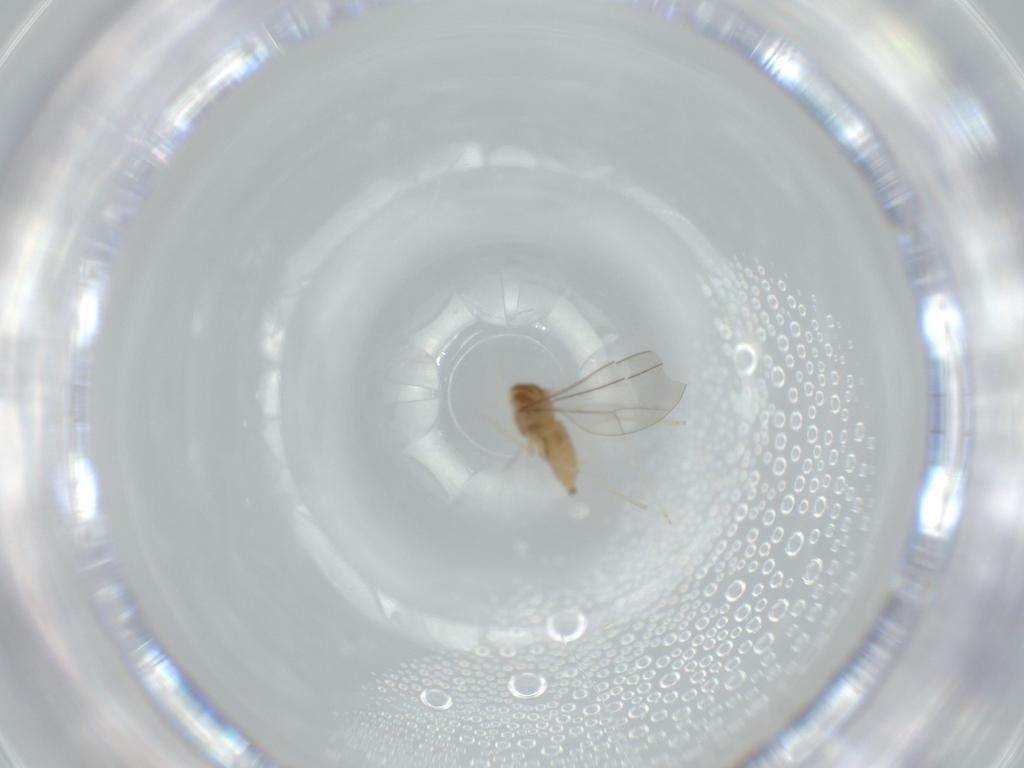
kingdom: Animalia
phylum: Arthropoda
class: Insecta
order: Diptera
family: Cecidomyiidae
